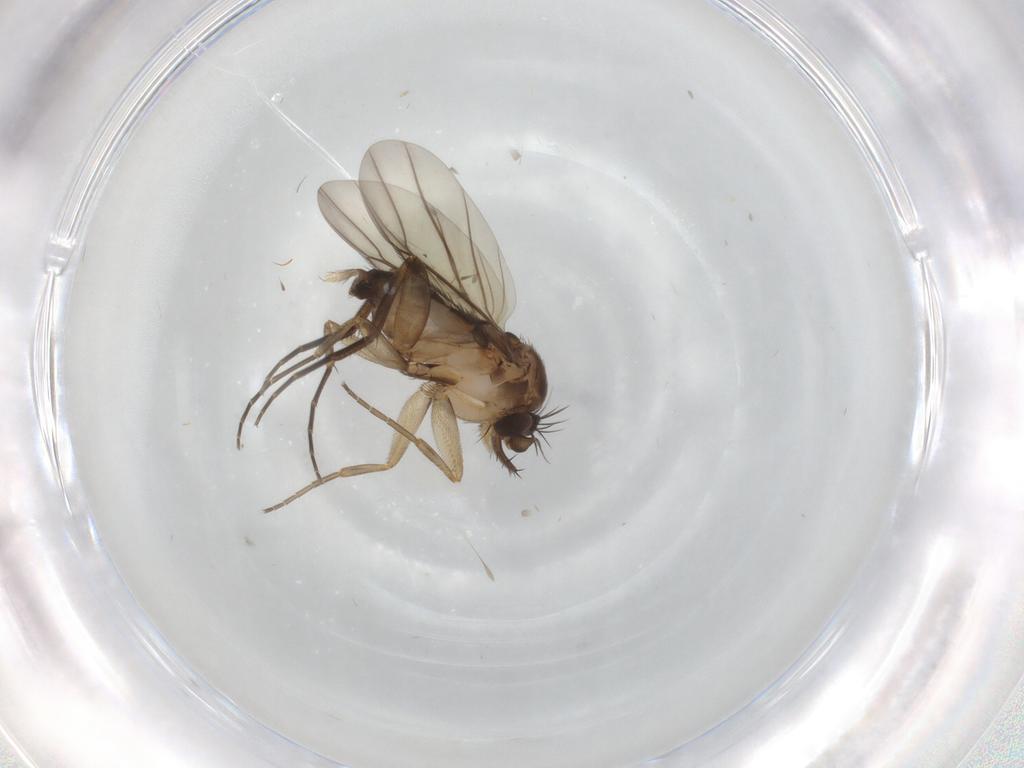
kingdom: Animalia
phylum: Arthropoda
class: Insecta
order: Diptera
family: Phoridae
